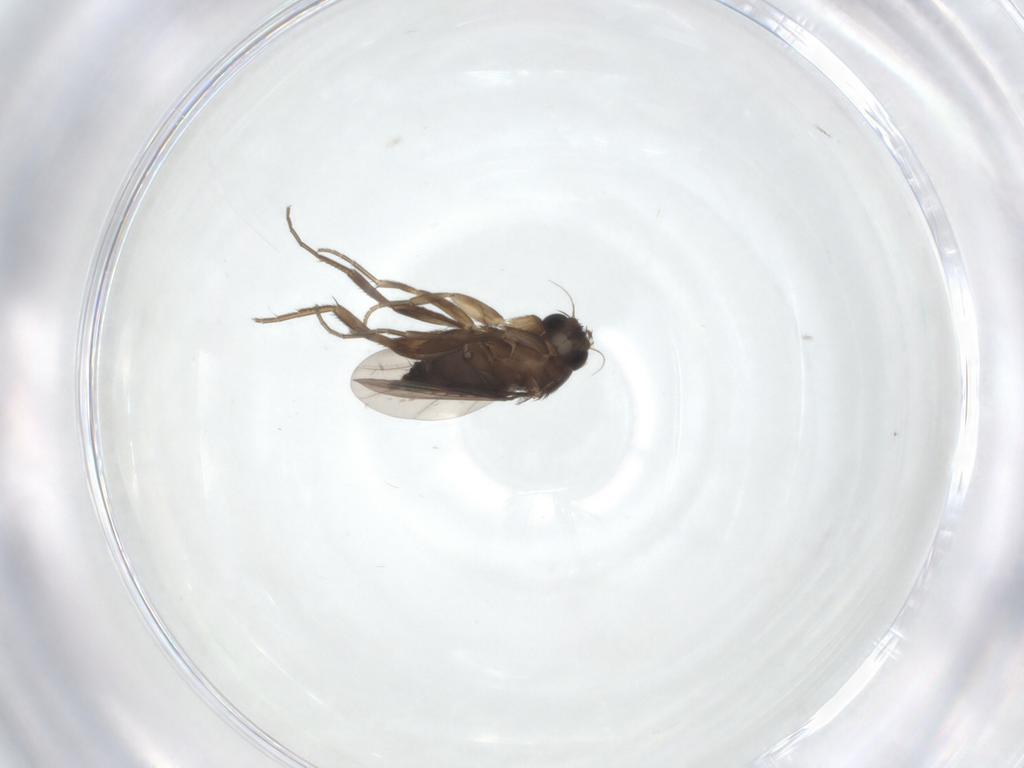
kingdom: Animalia
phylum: Arthropoda
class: Insecta
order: Diptera
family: Phoridae
